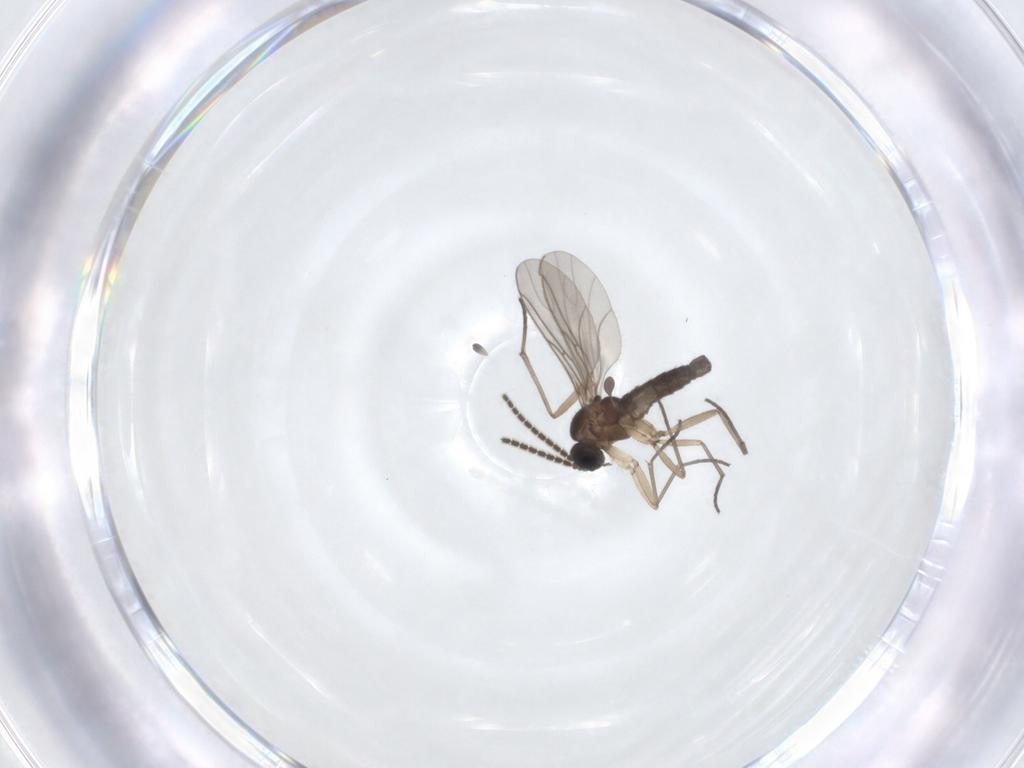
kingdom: Animalia
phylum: Arthropoda
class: Insecta
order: Diptera
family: Sciaridae
